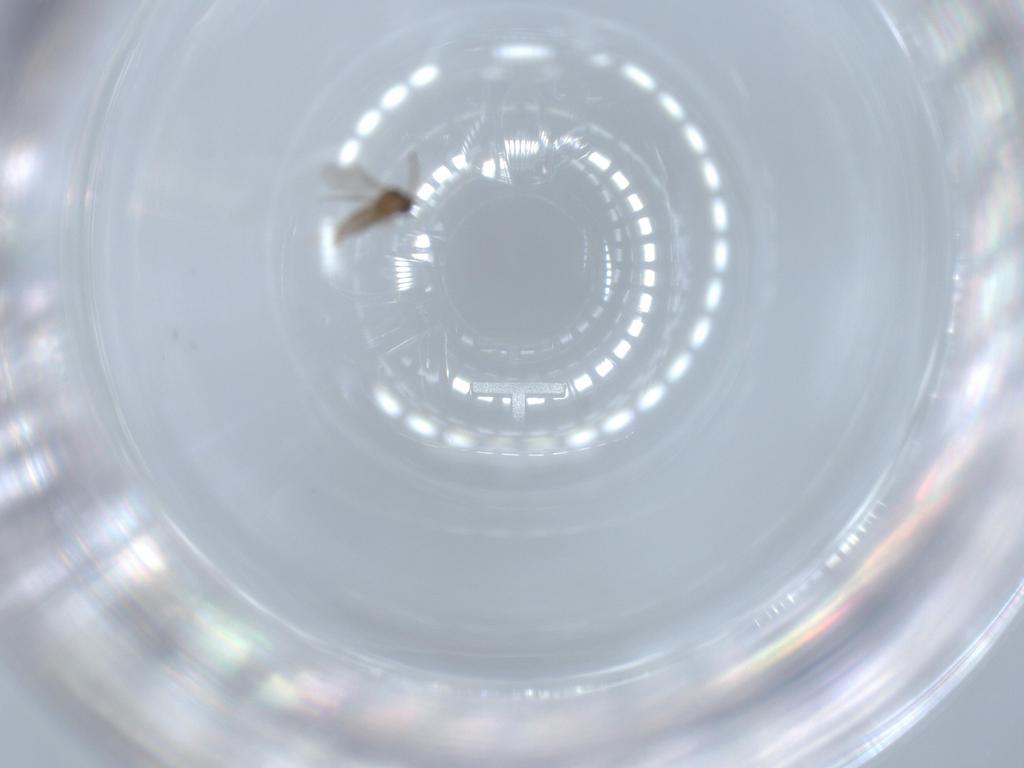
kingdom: Animalia
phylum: Arthropoda
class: Insecta
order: Diptera
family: Cecidomyiidae
